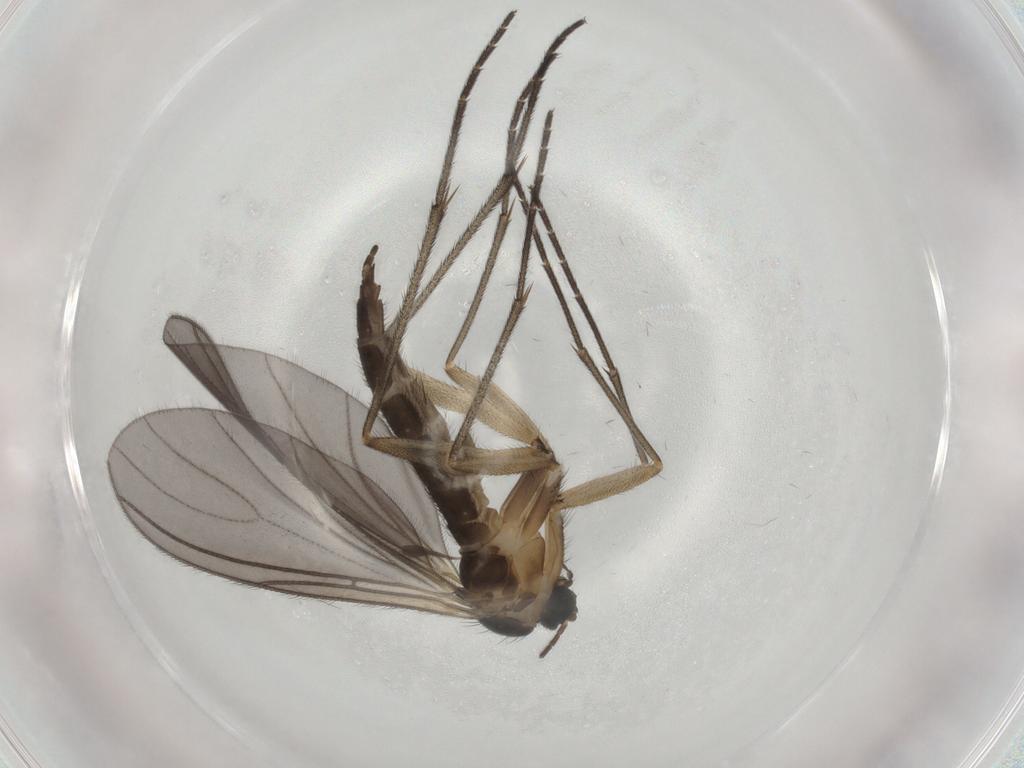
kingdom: Animalia
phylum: Arthropoda
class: Insecta
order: Diptera
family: Sciaridae
